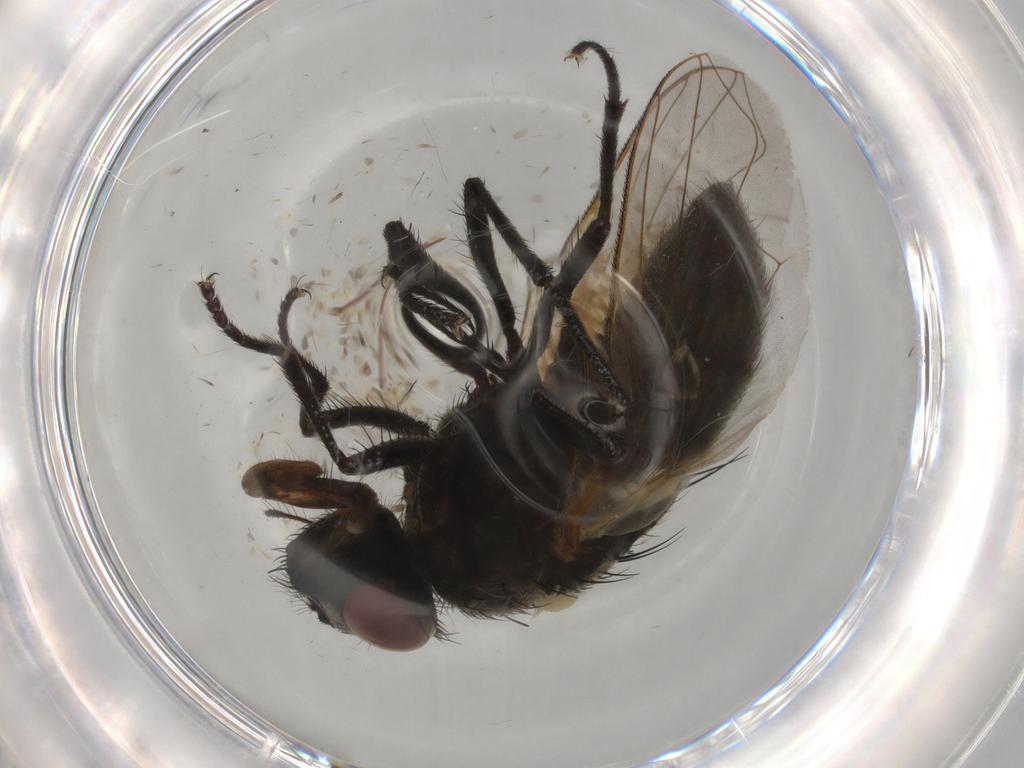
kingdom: Animalia
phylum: Arthropoda
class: Insecta
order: Diptera
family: Muscidae
